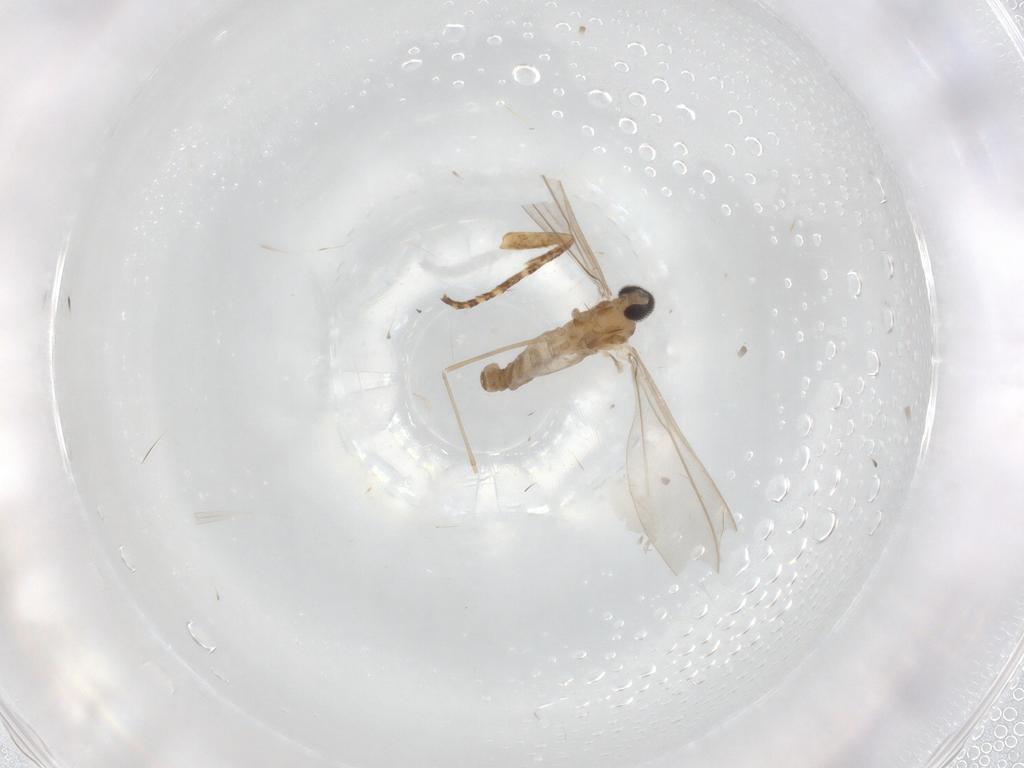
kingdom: Animalia
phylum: Arthropoda
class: Insecta
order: Diptera
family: Cecidomyiidae
